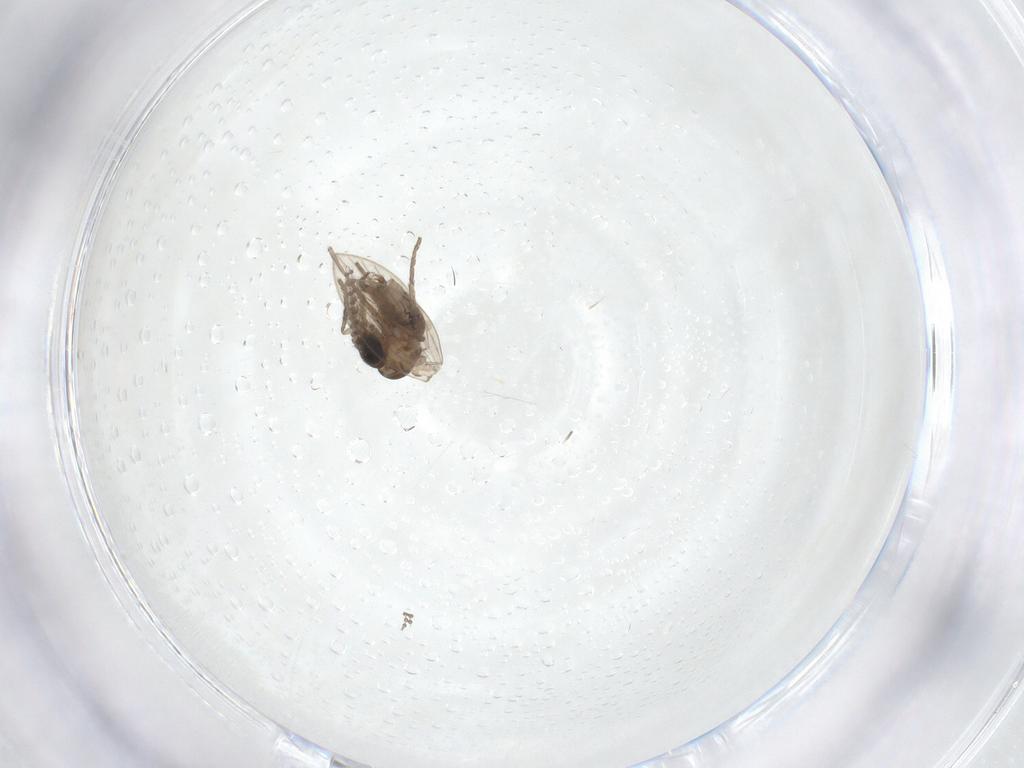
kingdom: Animalia
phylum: Arthropoda
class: Insecta
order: Diptera
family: Psychodidae
